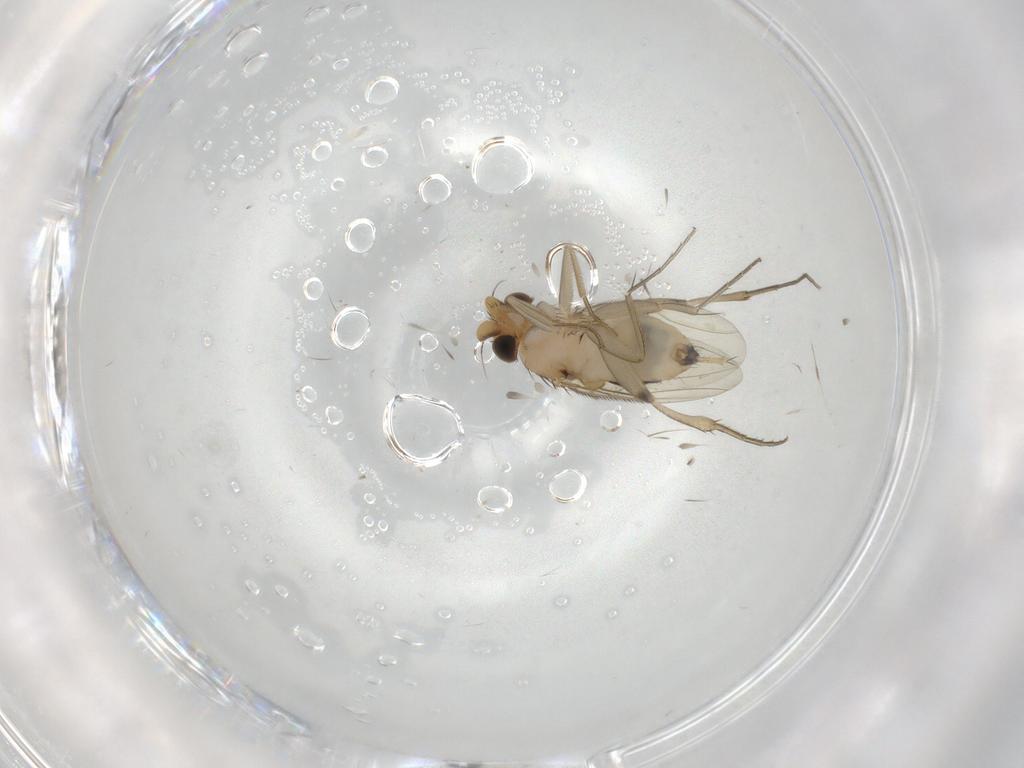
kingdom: Animalia
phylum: Arthropoda
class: Insecta
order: Diptera
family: Phoridae
